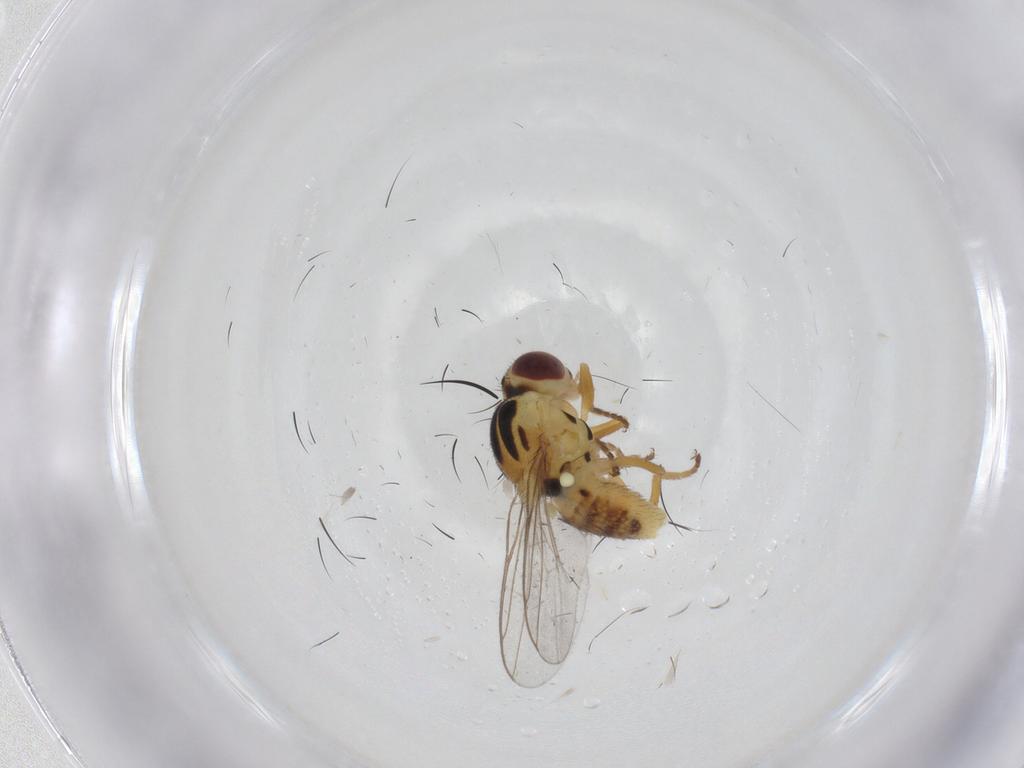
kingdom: Animalia
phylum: Arthropoda
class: Insecta
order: Diptera
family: Chloropidae
